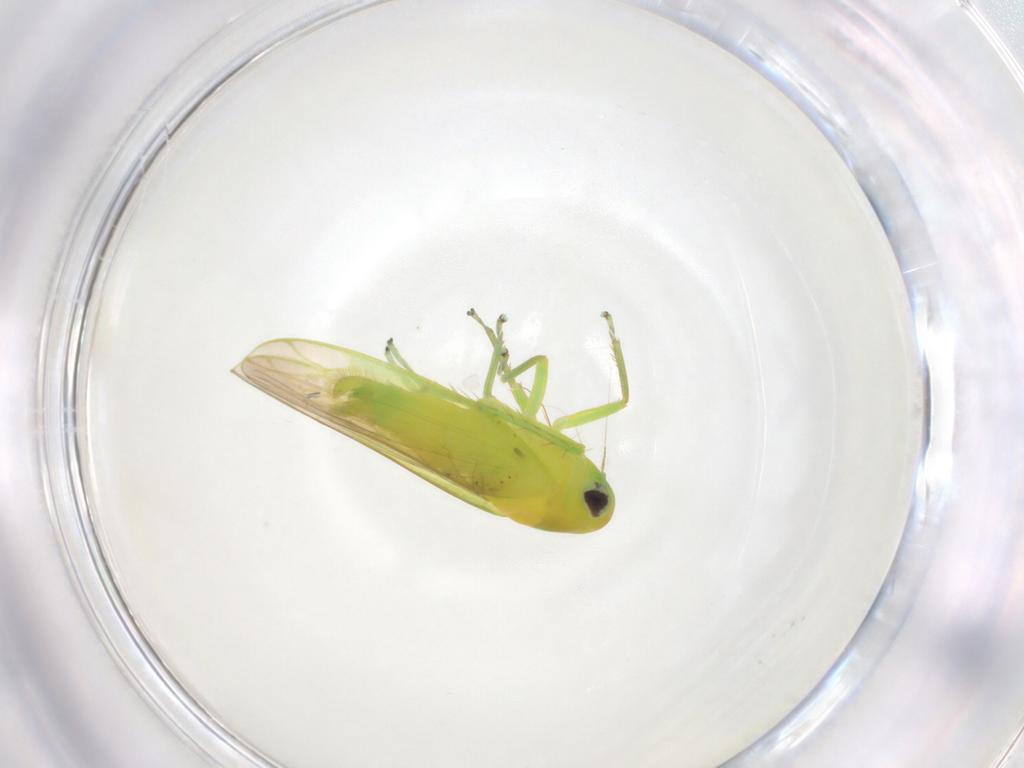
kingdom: Animalia
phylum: Arthropoda
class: Insecta
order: Hemiptera
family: Cicadellidae
